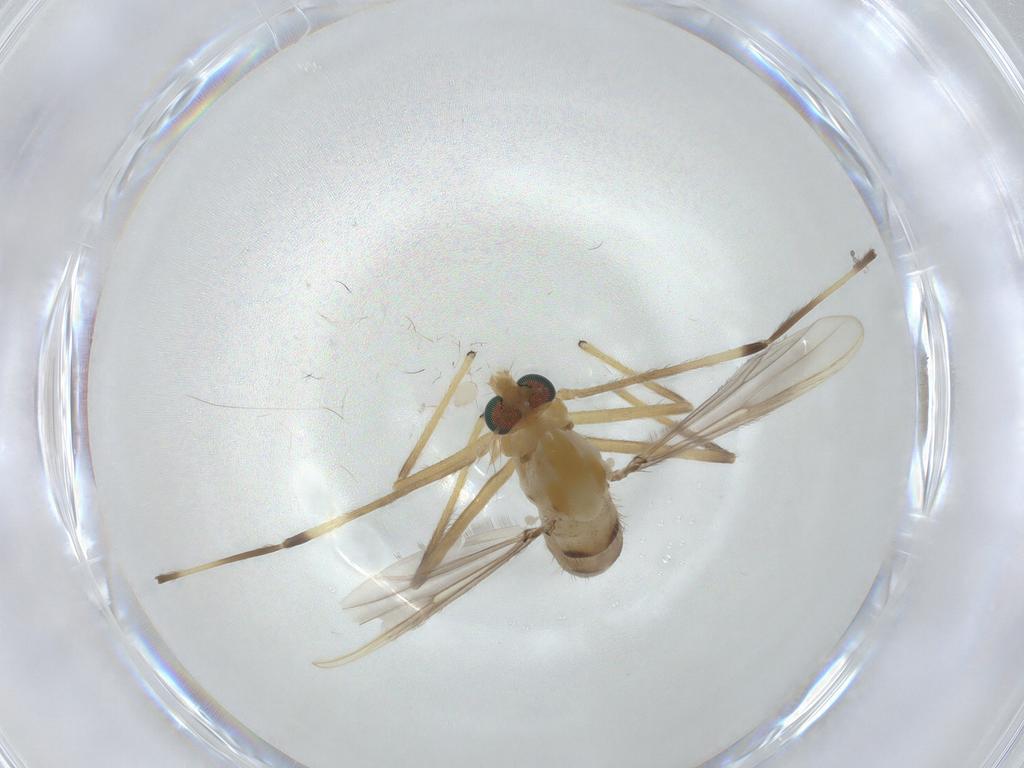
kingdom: Animalia
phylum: Arthropoda
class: Insecta
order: Diptera
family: Chironomidae
